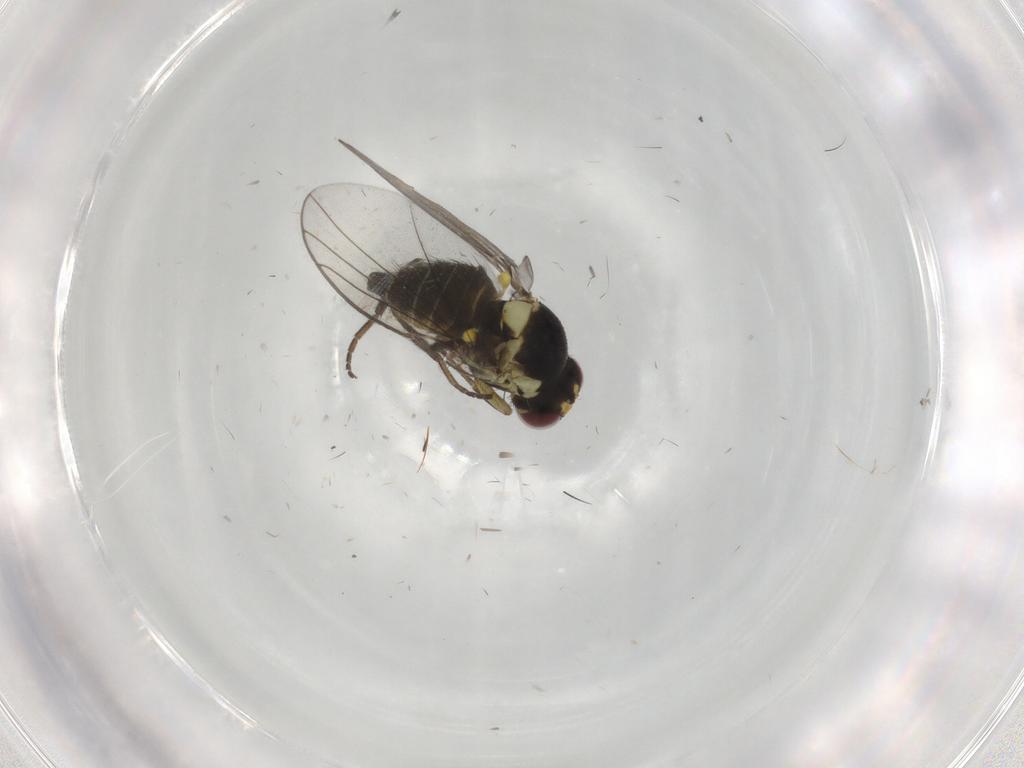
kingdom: Animalia
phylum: Arthropoda
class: Insecta
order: Diptera
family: Agromyzidae
